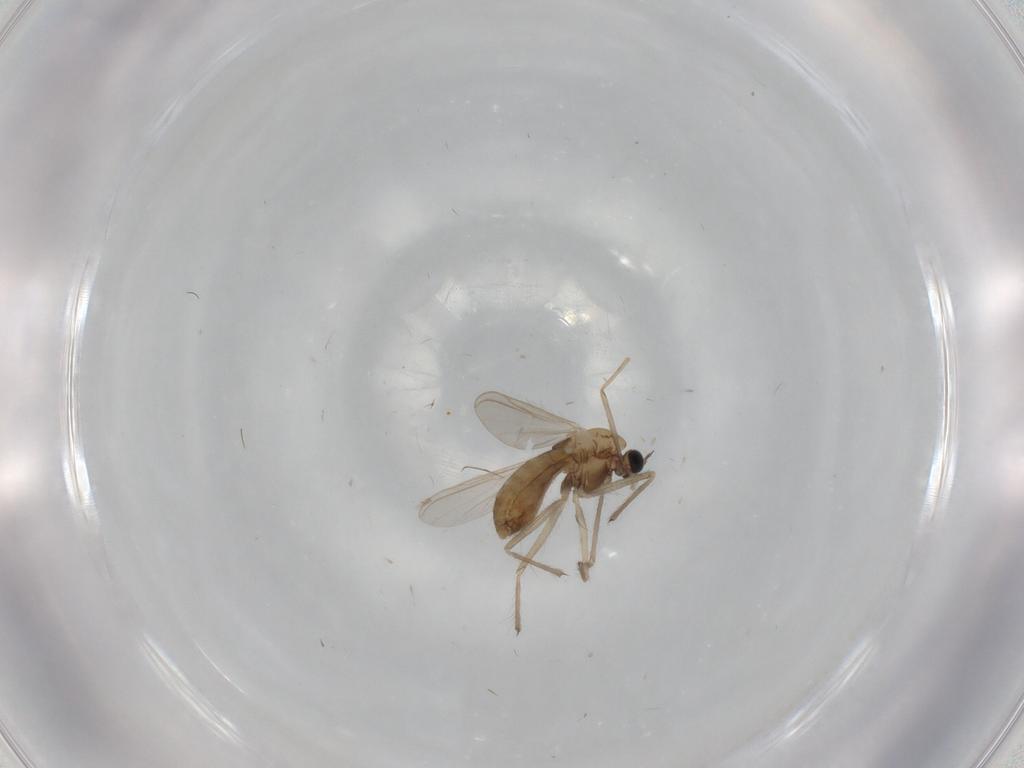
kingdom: Animalia
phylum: Arthropoda
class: Insecta
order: Diptera
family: Chironomidae
